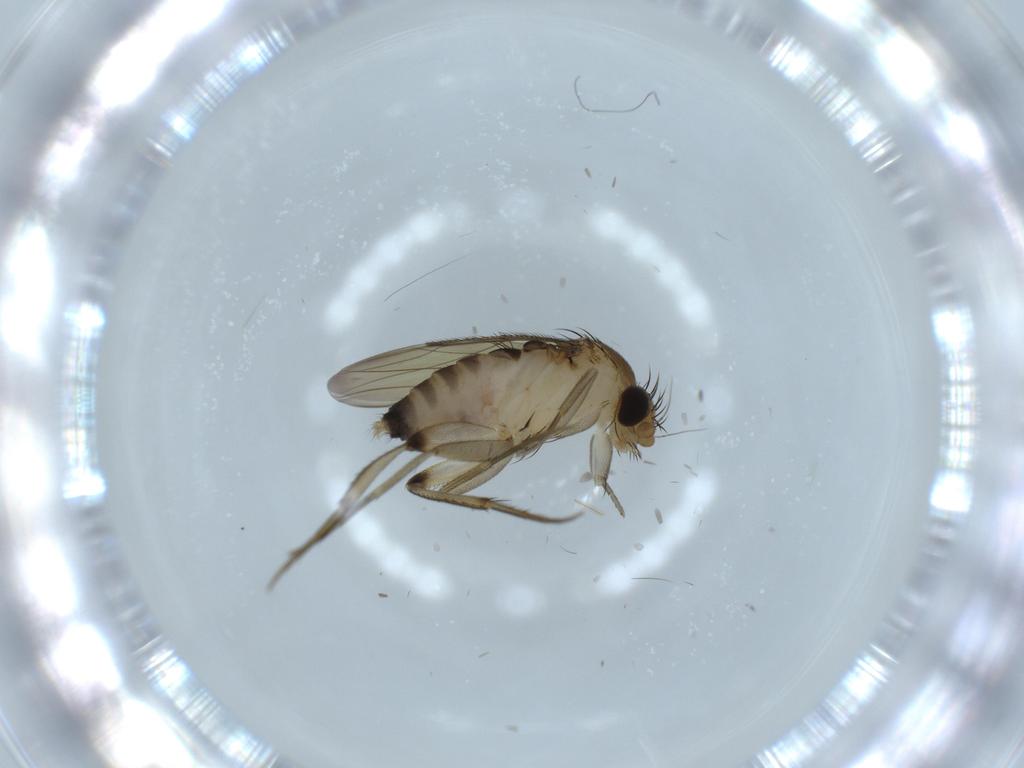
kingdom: Animalia
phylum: Arthropoda
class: Insecta
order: Diptera
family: Phoridae
